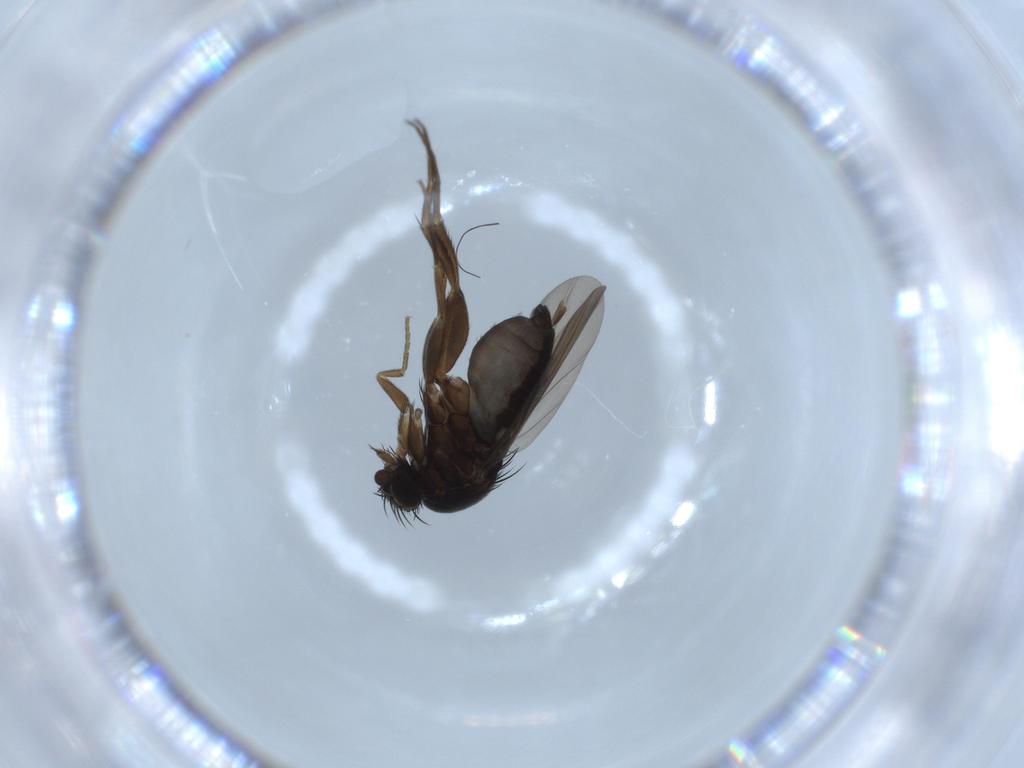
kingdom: Animalia
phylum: Arthropoda
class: Insecta
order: Diptera
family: Phoridae
